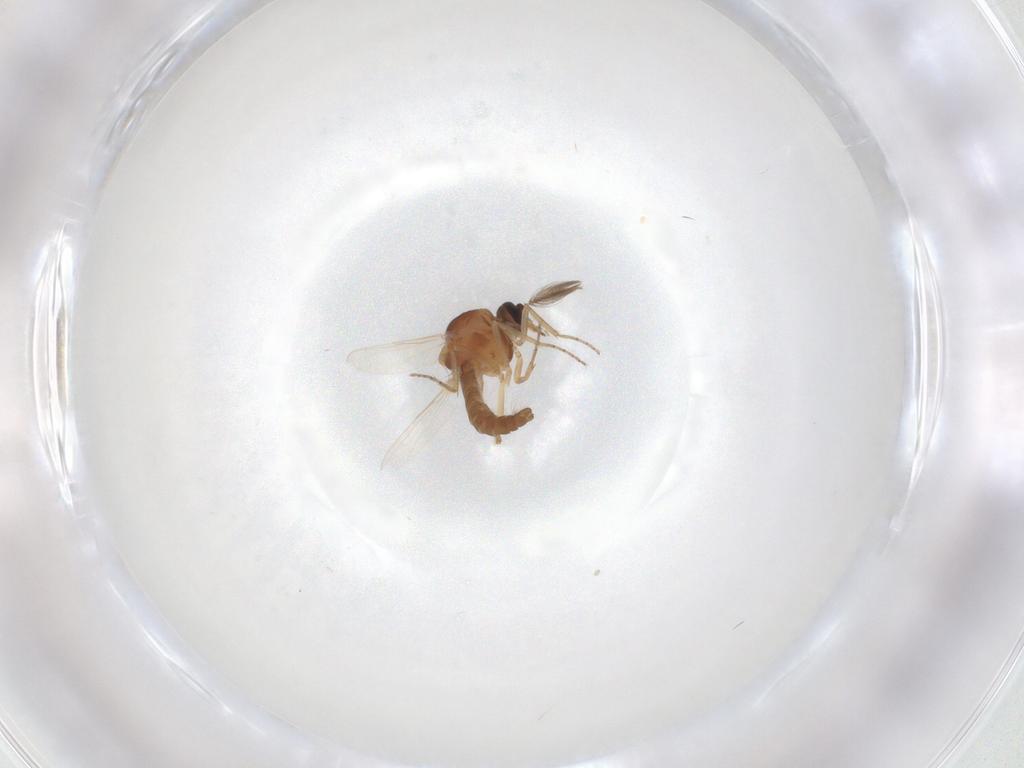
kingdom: Animalia
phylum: Arthropoda
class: Insecta
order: Diptera
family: Ceratopogonidae
